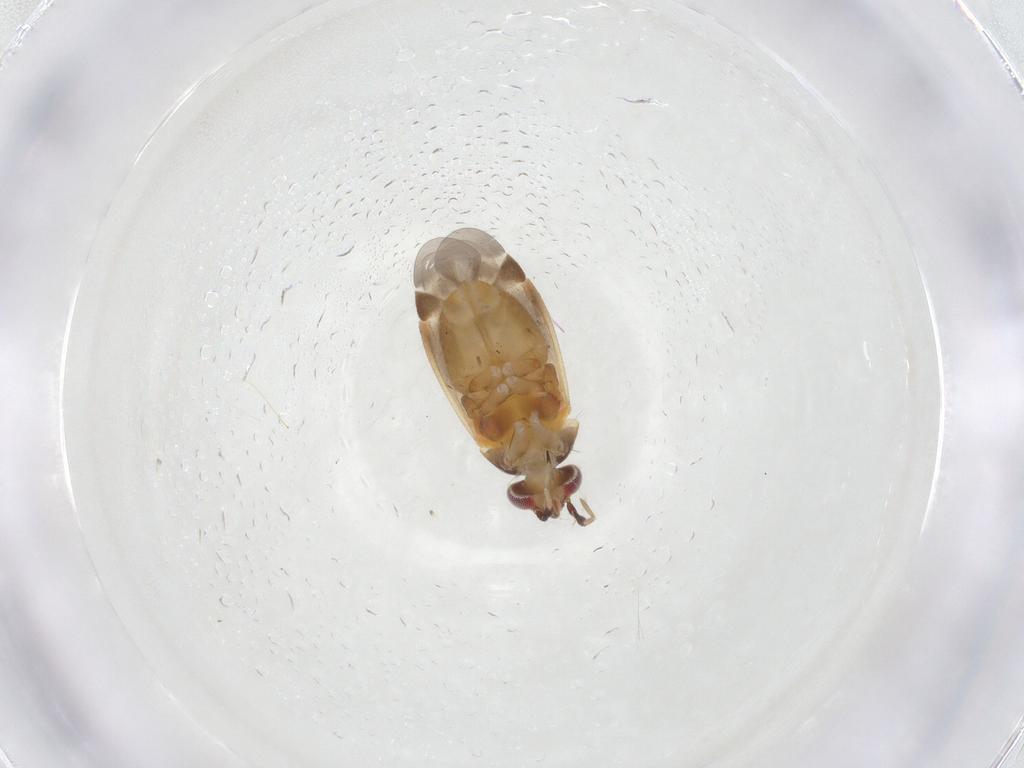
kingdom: Animalia
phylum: Arthropoda
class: Insecta
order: Hemiptera
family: Miridae
